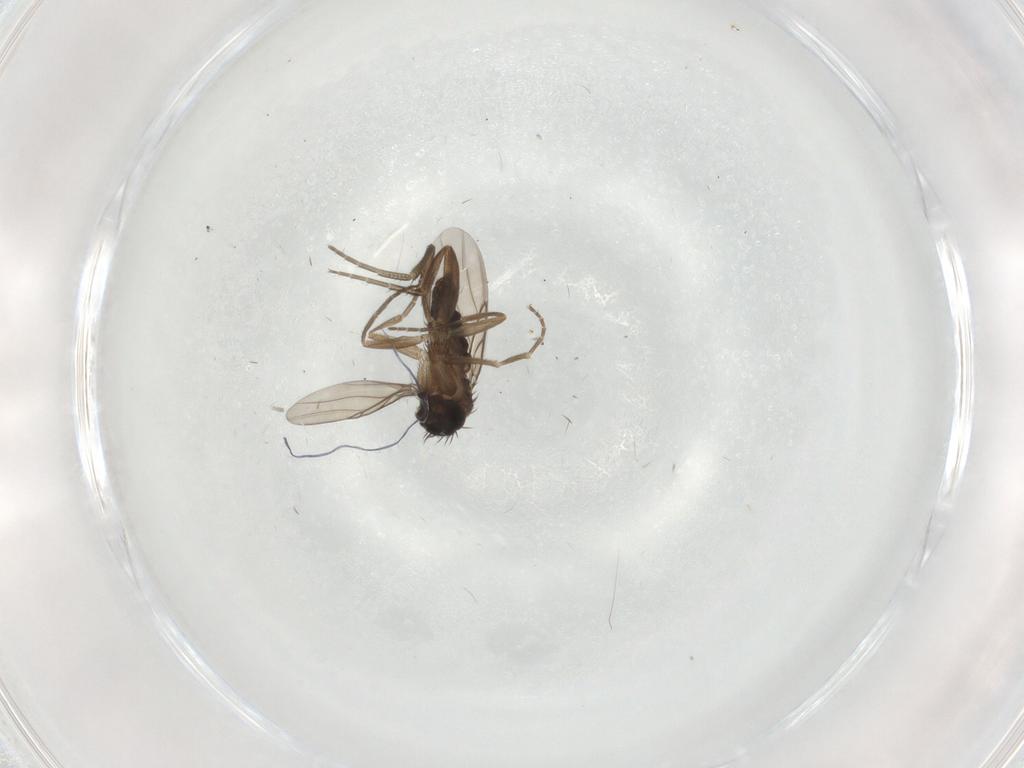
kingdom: Animalia
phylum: Arthropoda
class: Insecta
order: Diptera
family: Phoridae
